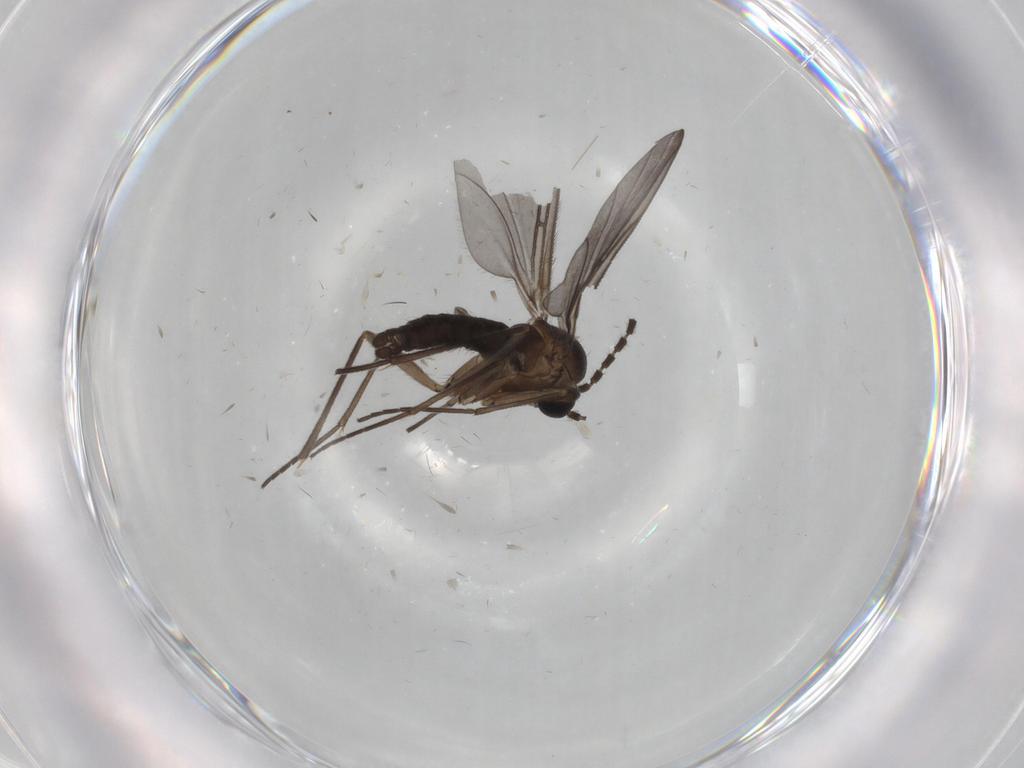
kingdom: Animalia
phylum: Arthropoda
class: Insecta
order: Diptera
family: Sciaridae
